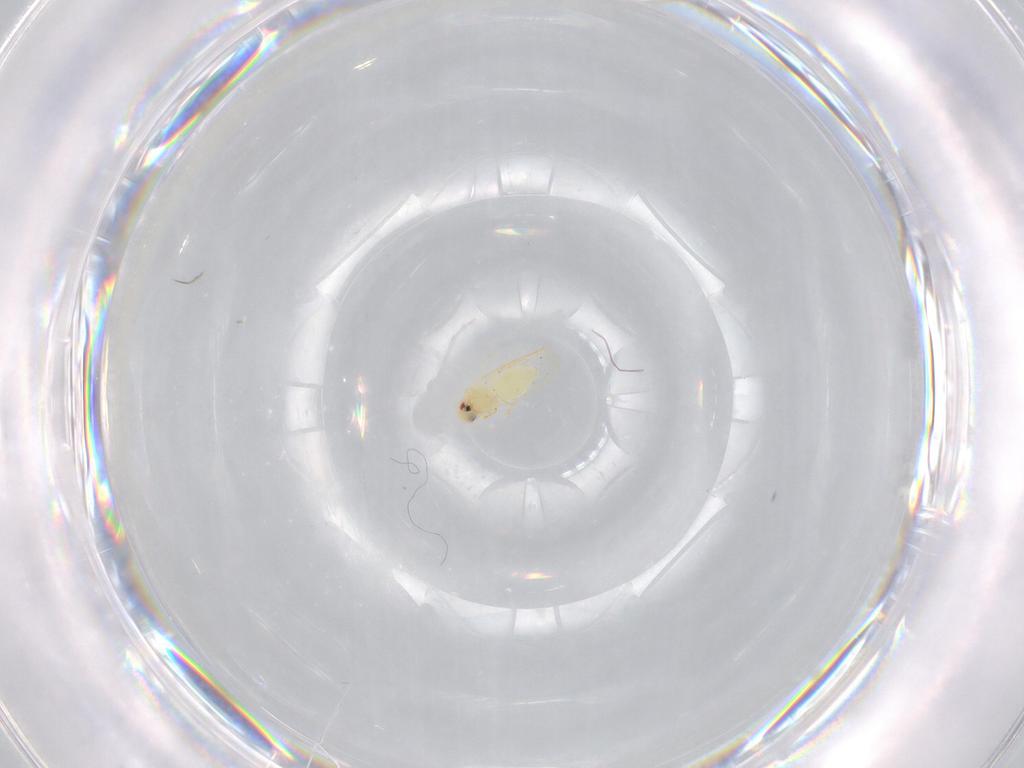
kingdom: Animalia
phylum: Arthropoda
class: Insecta
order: Hemiptera
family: Aleyrodidae
